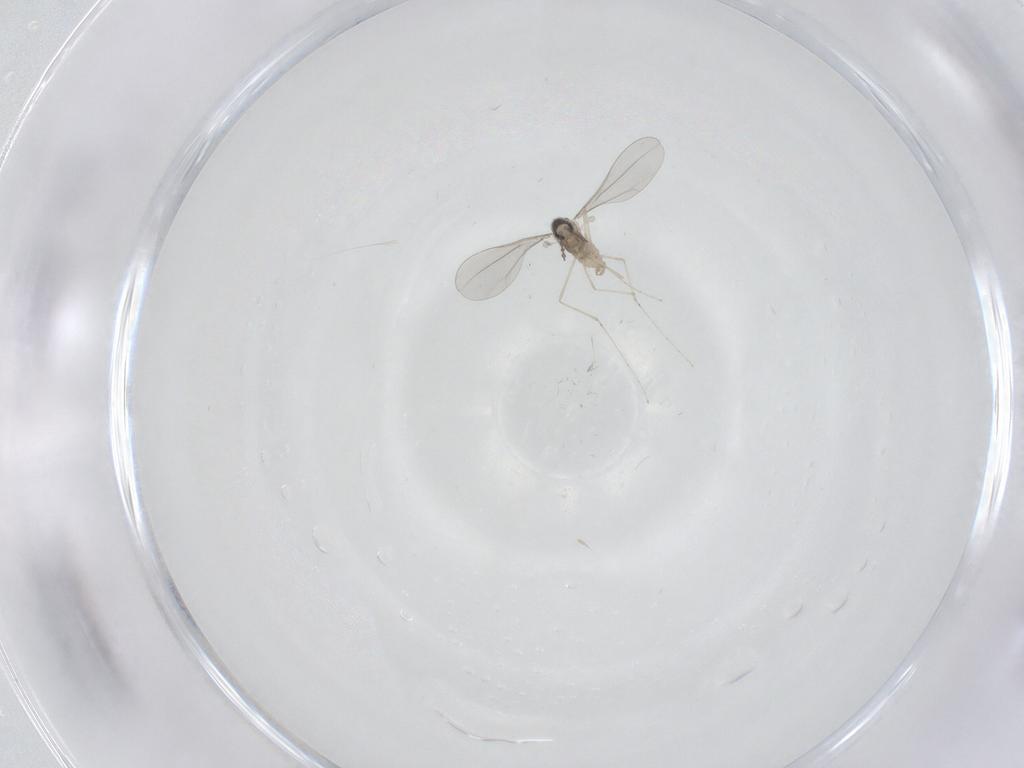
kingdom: Animalia
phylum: Arthropoda
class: Insecta
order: Diptera
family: Cecidomyiidae
